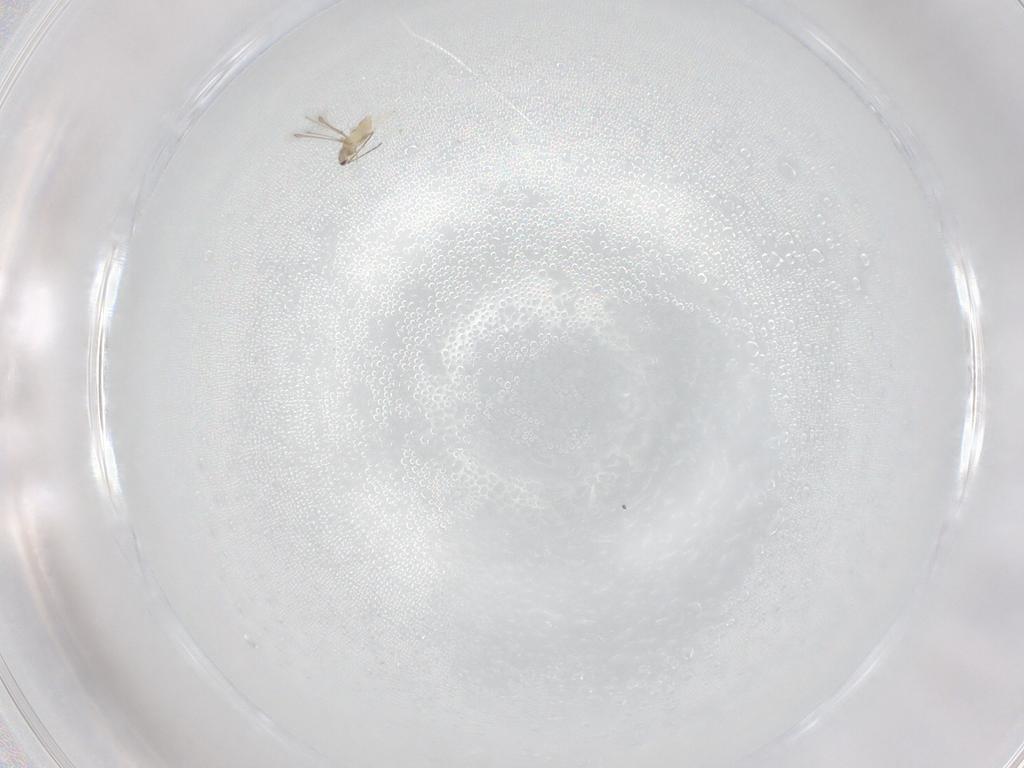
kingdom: Animalia
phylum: Arthropoda
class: Insecta
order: Hymenoptera
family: Mymaridae
